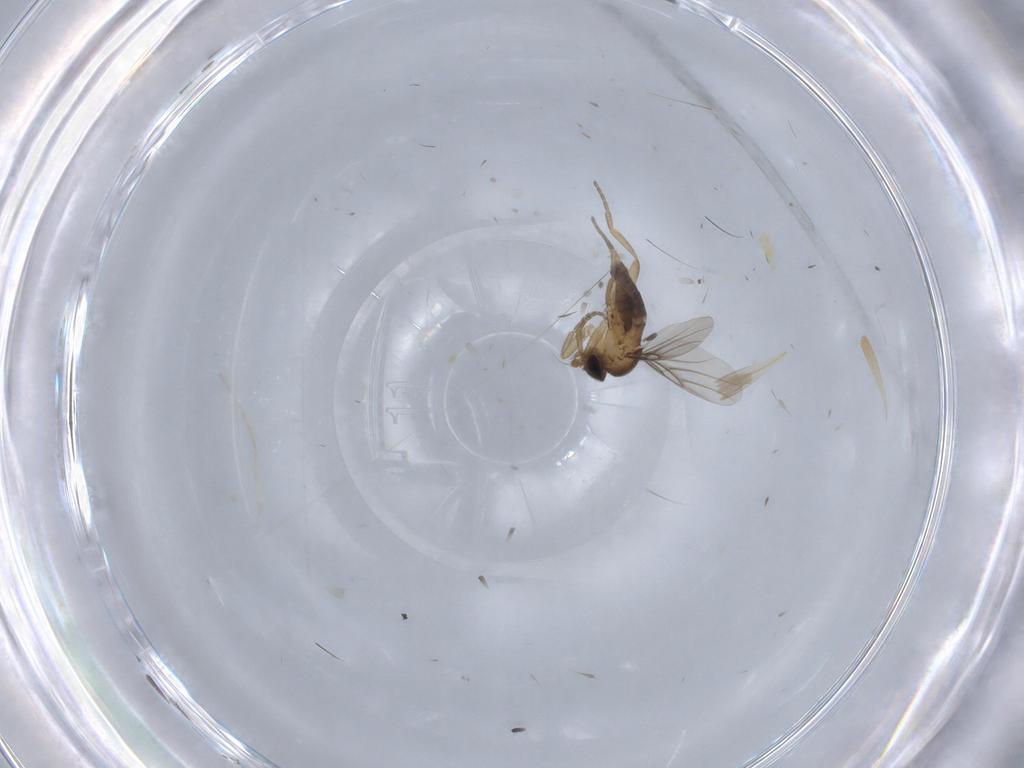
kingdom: Animalia
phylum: Arthropoda
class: Insecta
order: Diptera
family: Phoridae
